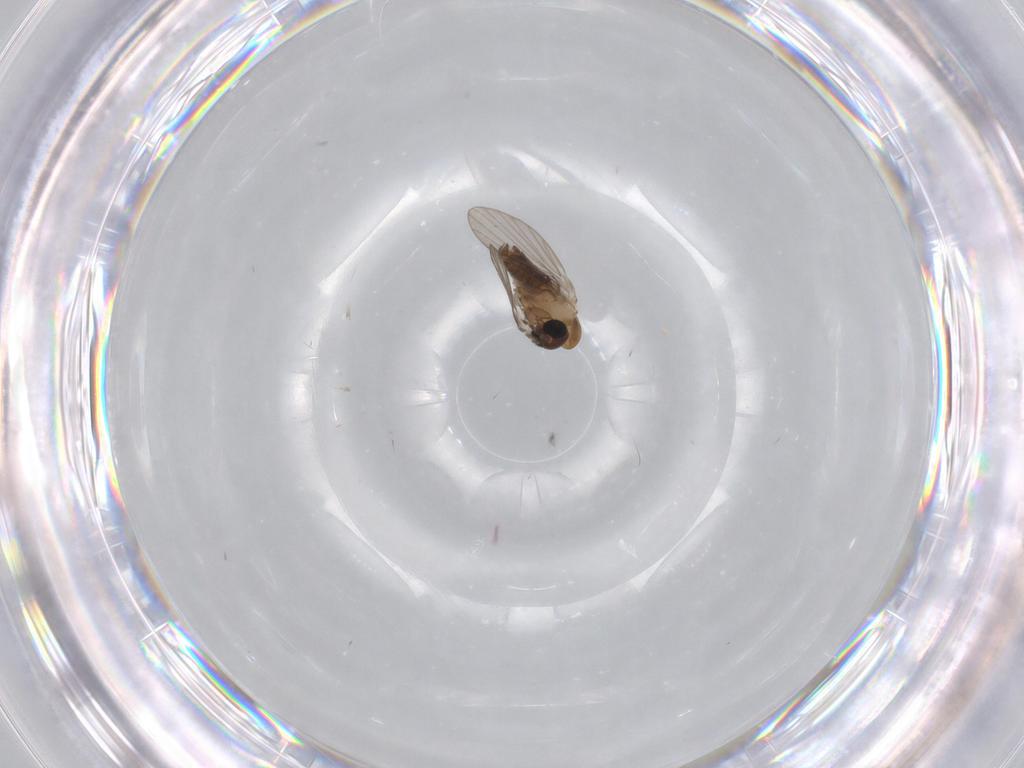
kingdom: Animalia
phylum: Arthropoda
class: Insecta
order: Diptera
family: Psychodidae
